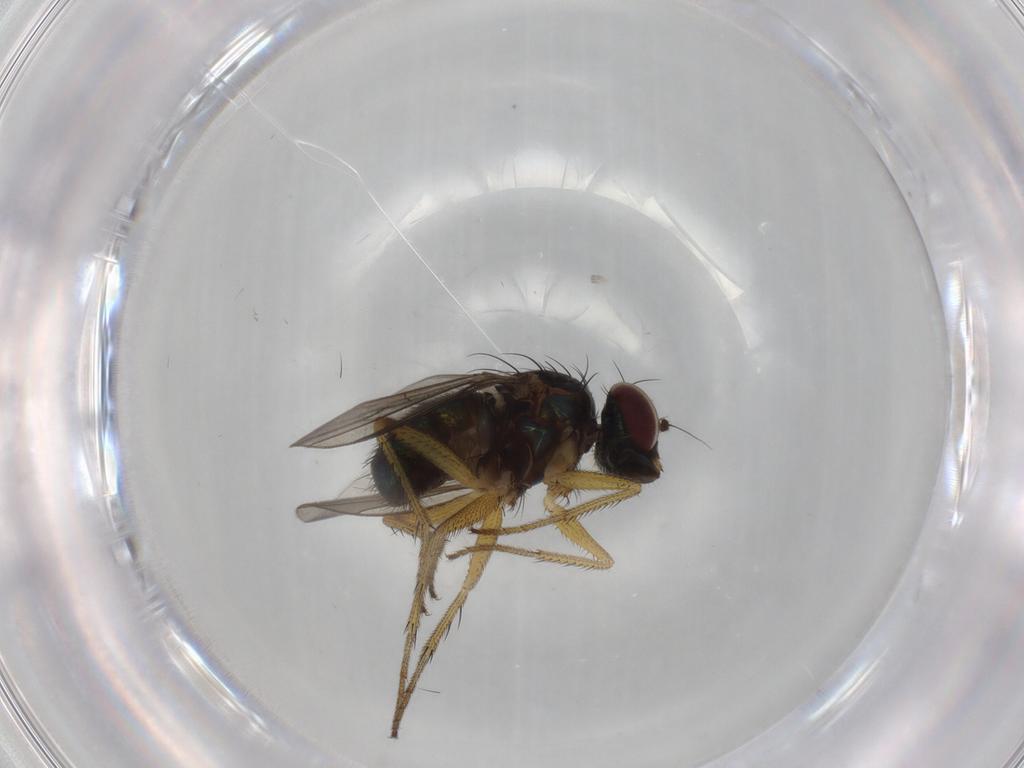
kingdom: Animalia
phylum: Arthropoda
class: Insecta
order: Diptera
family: Dolichopodidae
